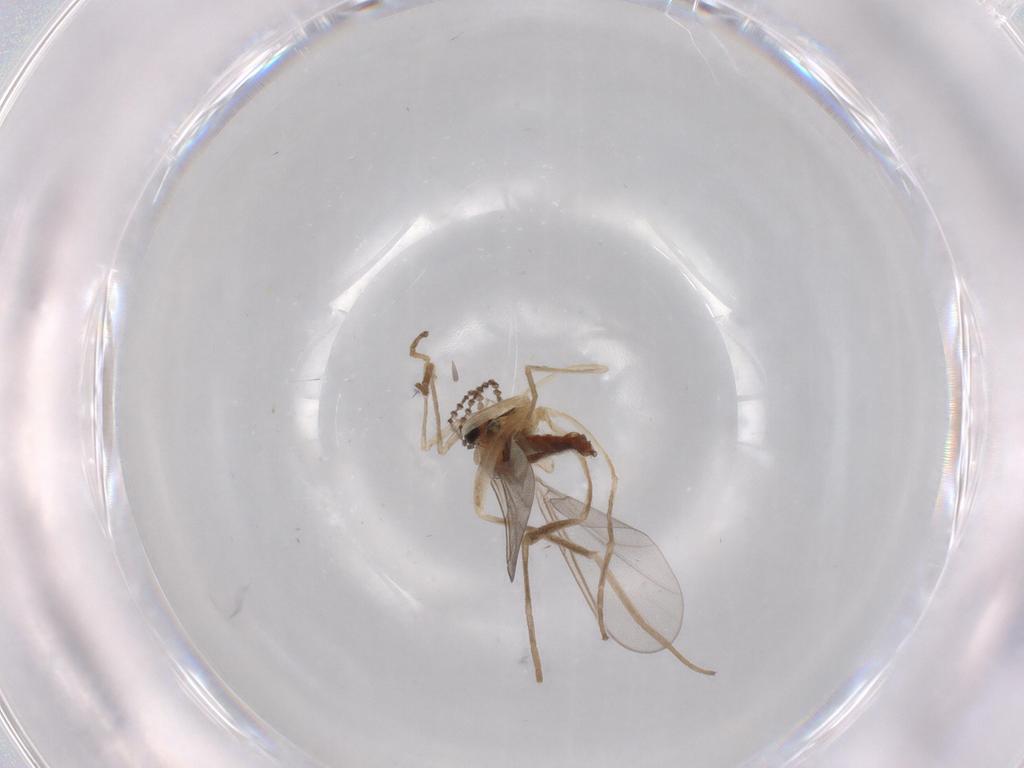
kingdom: Animalia
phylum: Arthropoda
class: Insecta
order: Diptera
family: Cecidomyiidae
